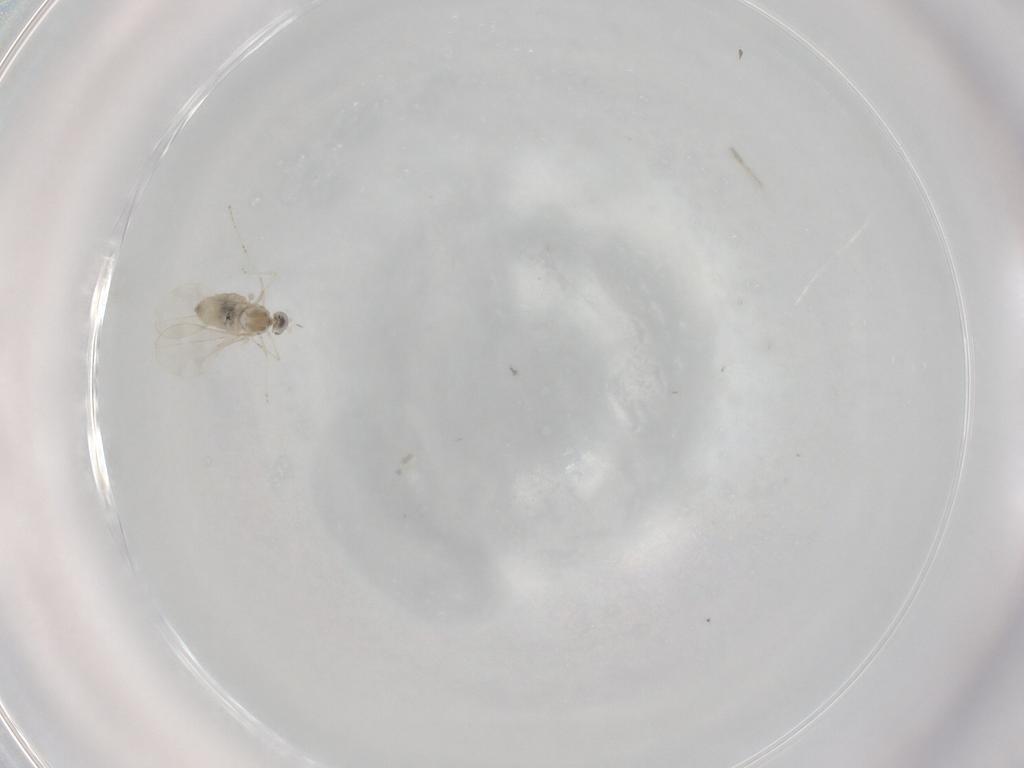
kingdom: Animalia
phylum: Arthropoda
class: Insecta
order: Diptera
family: Cecidomyiidae
